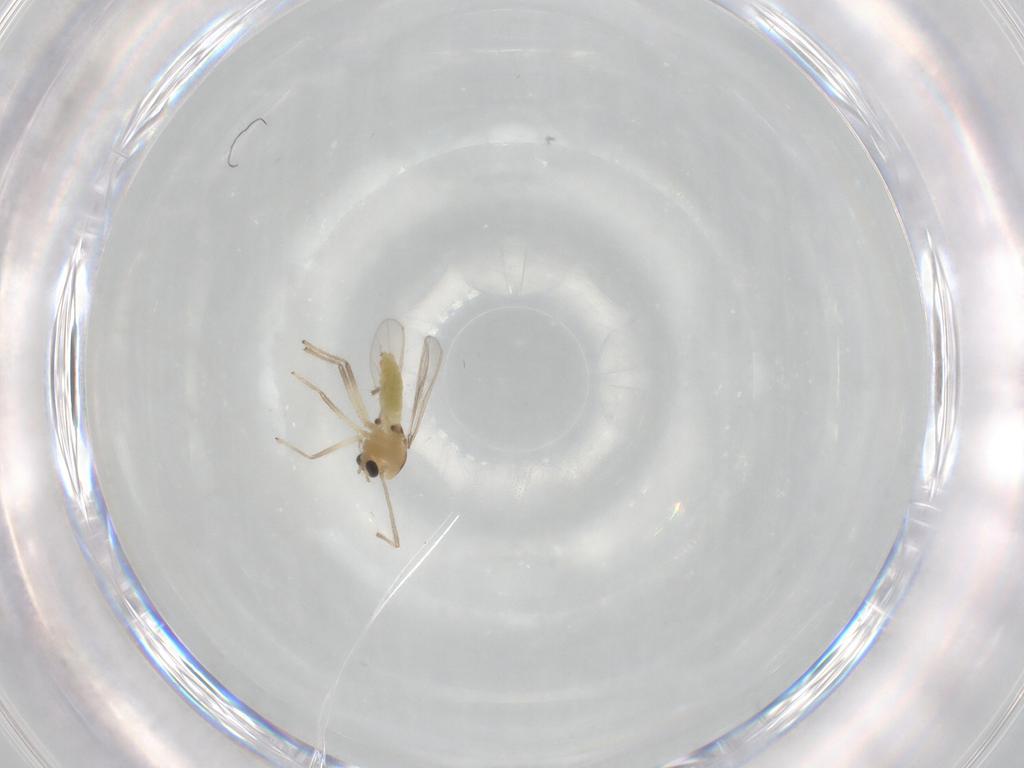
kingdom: Animalia
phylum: Arthropoda
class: Insecta
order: Diptera
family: Chironomidae
